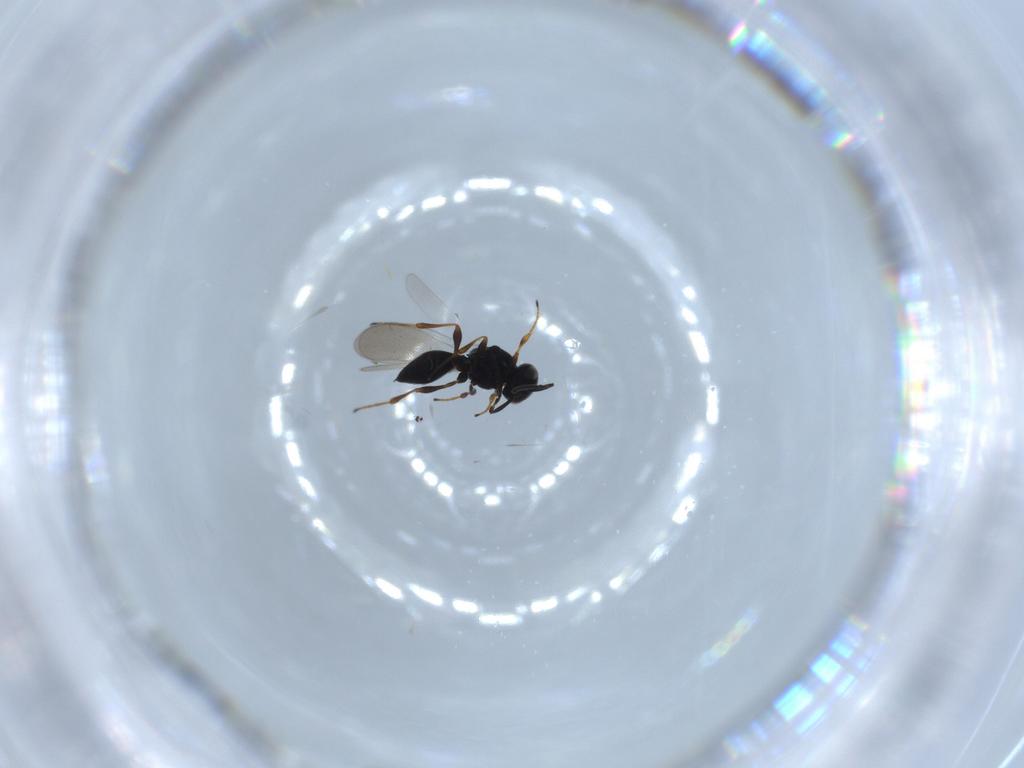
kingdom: Animalia
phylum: Arthropoda
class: Insecta
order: Hymenoptera
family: Platygastridae
